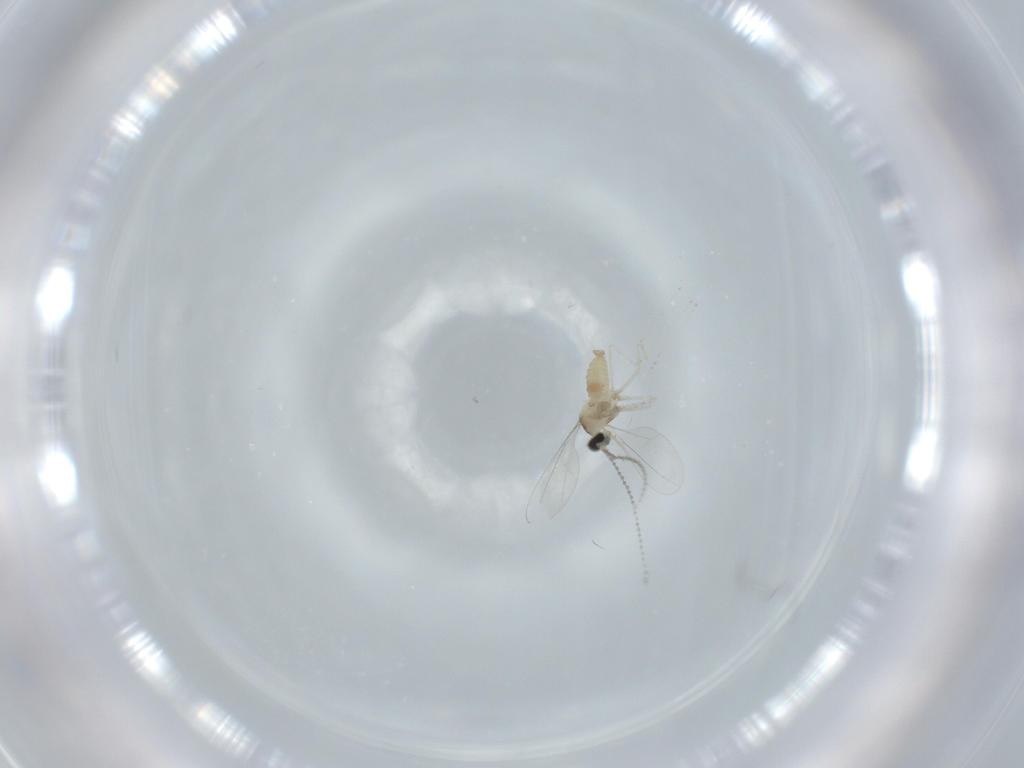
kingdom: Animalia
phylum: Arthropoda
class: Insecta
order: Diptera
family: Cecidomyiidae
